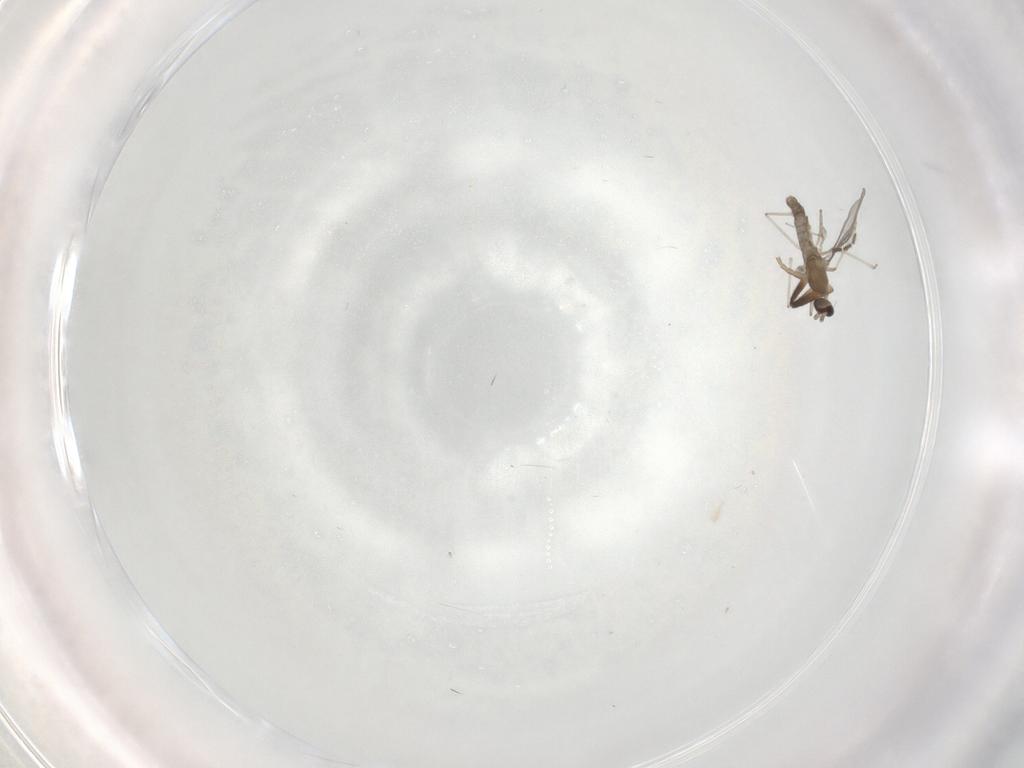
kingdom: Animalia
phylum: Arthropoda
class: Insecta
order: Diptera
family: Cecidomyiidae
